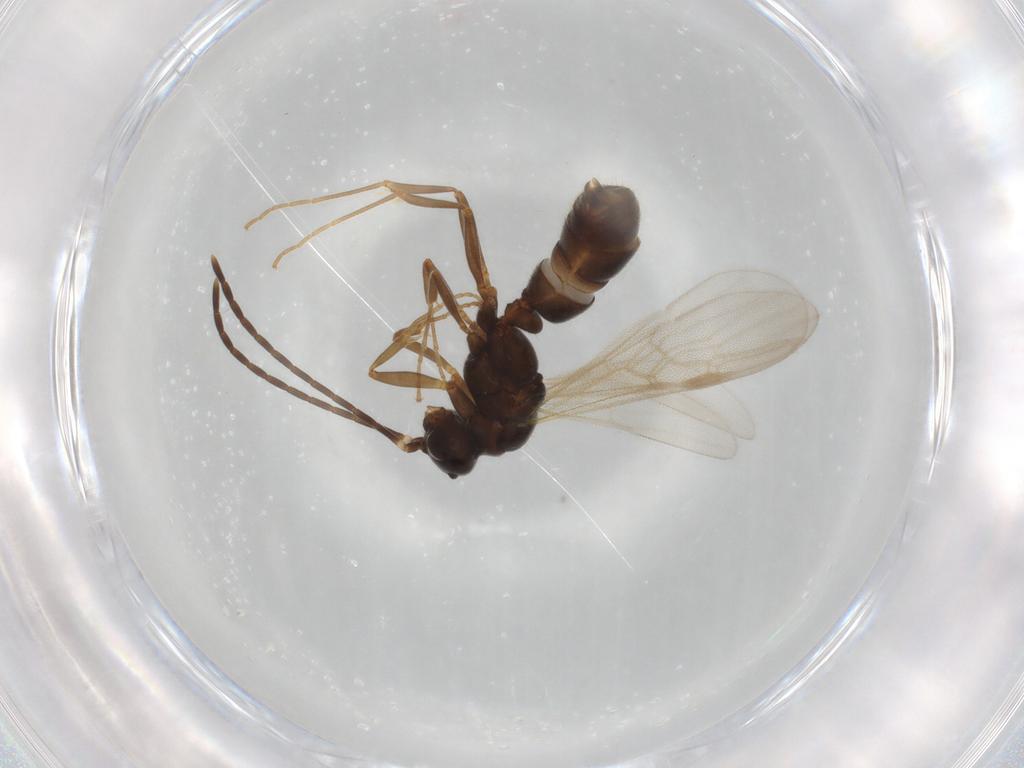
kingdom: Animalia
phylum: Arthropoda
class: Insecta
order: Hymenoptera
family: Formicidae
